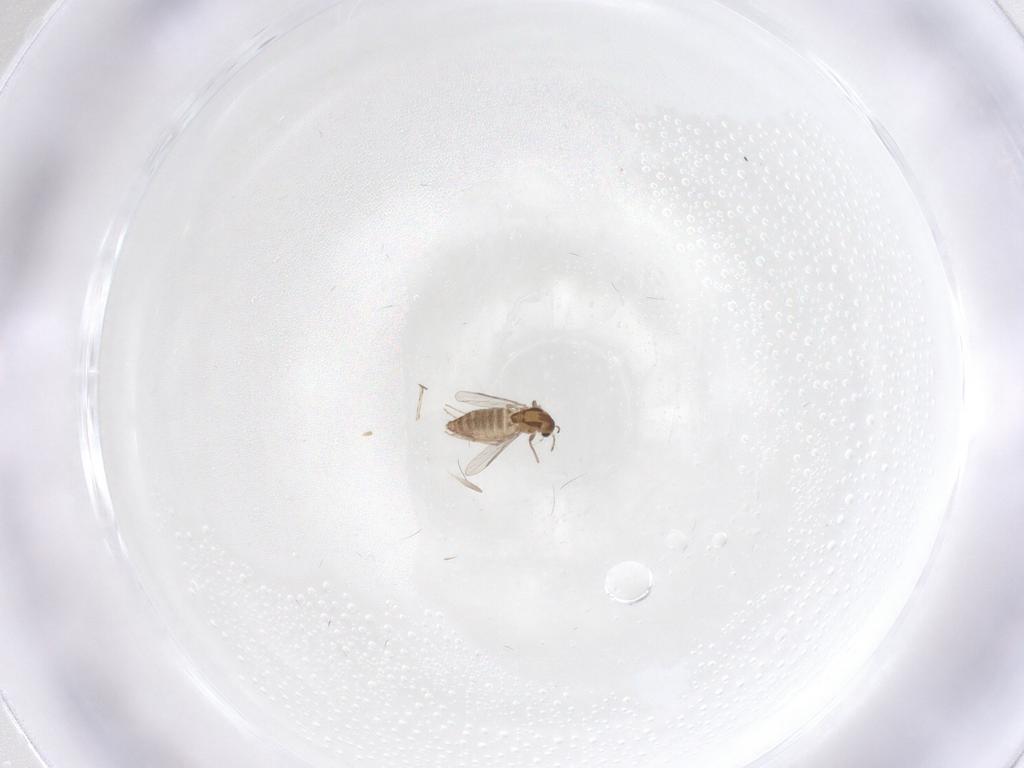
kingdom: Animalia
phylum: Arthropoda
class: Insecta
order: Diptera
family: Chironomidae
